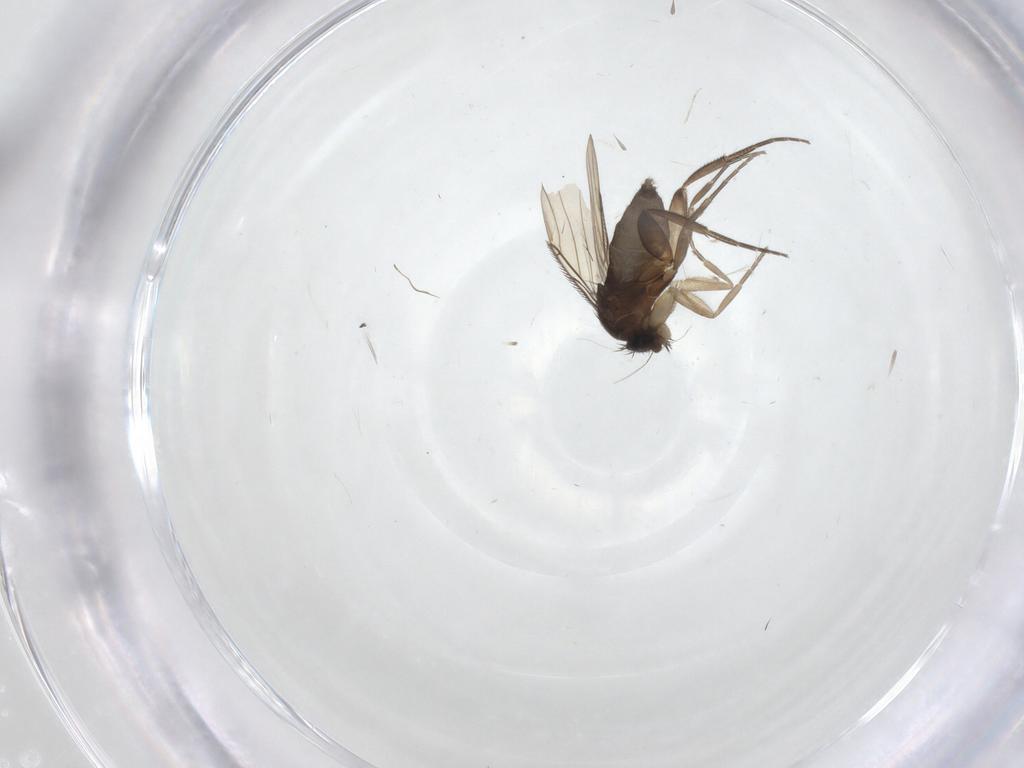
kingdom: Animalia
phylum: Arthropoda
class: Insecta
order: Diptera
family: Phoridae
